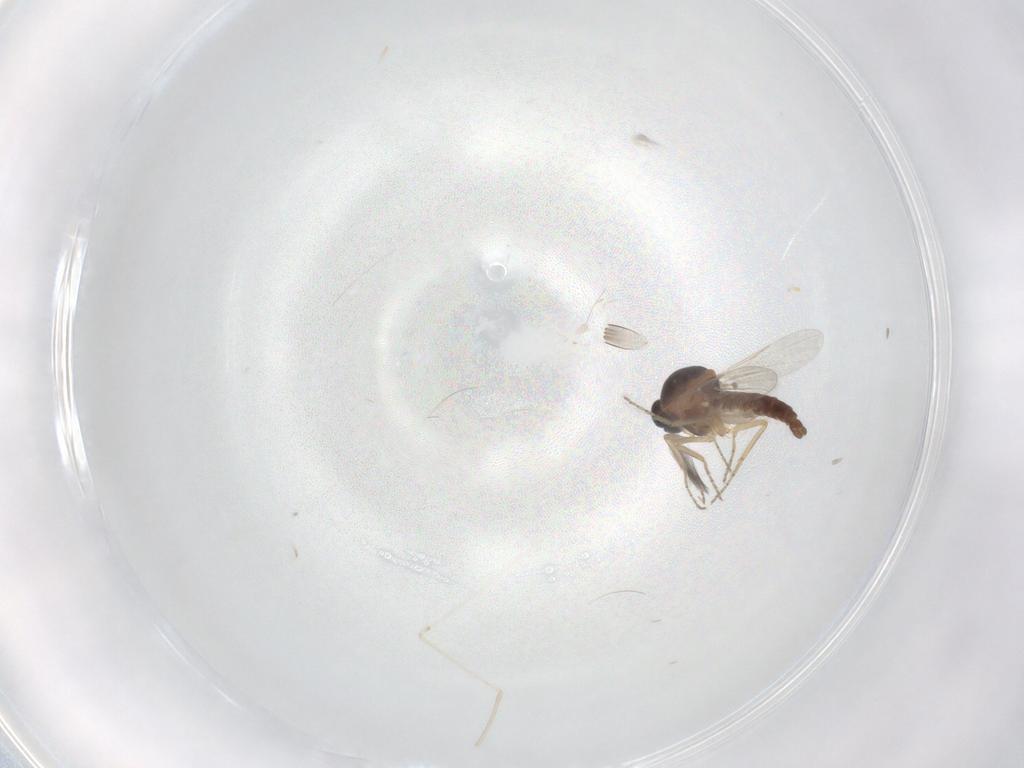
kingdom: Animalia
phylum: Arthropoda
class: Insecta
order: Diptera
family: Ceratopogonidae
